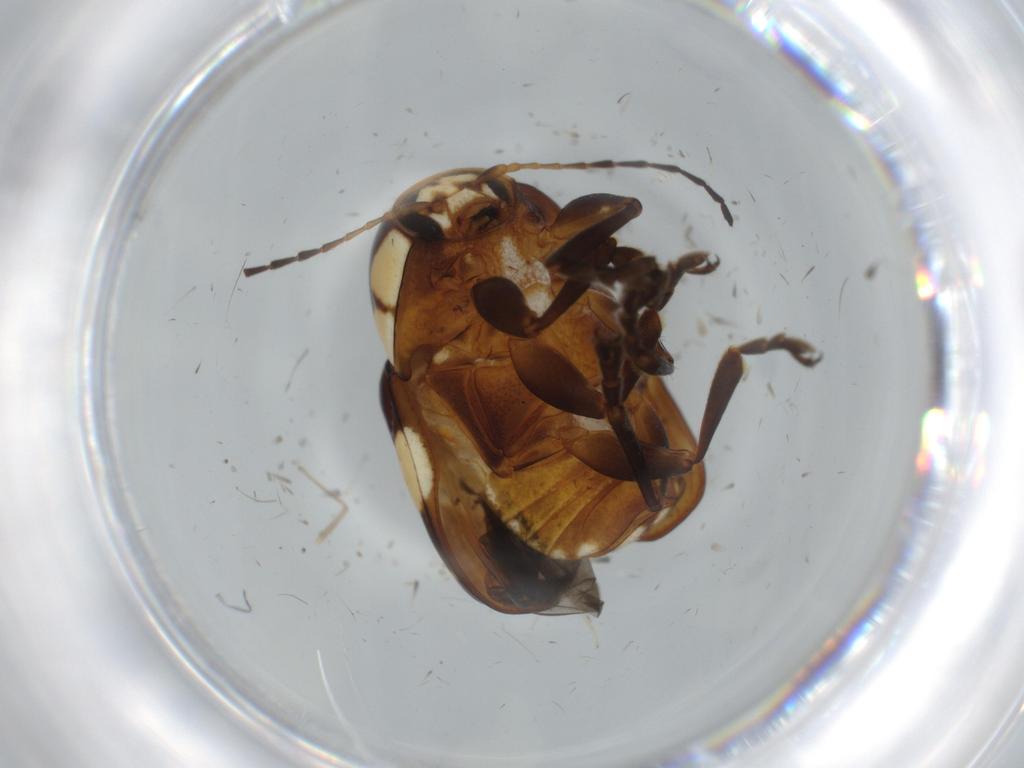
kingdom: Animalia
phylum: Arthropoda
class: Insecta
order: Coleoptera
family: Chrysomelidae
